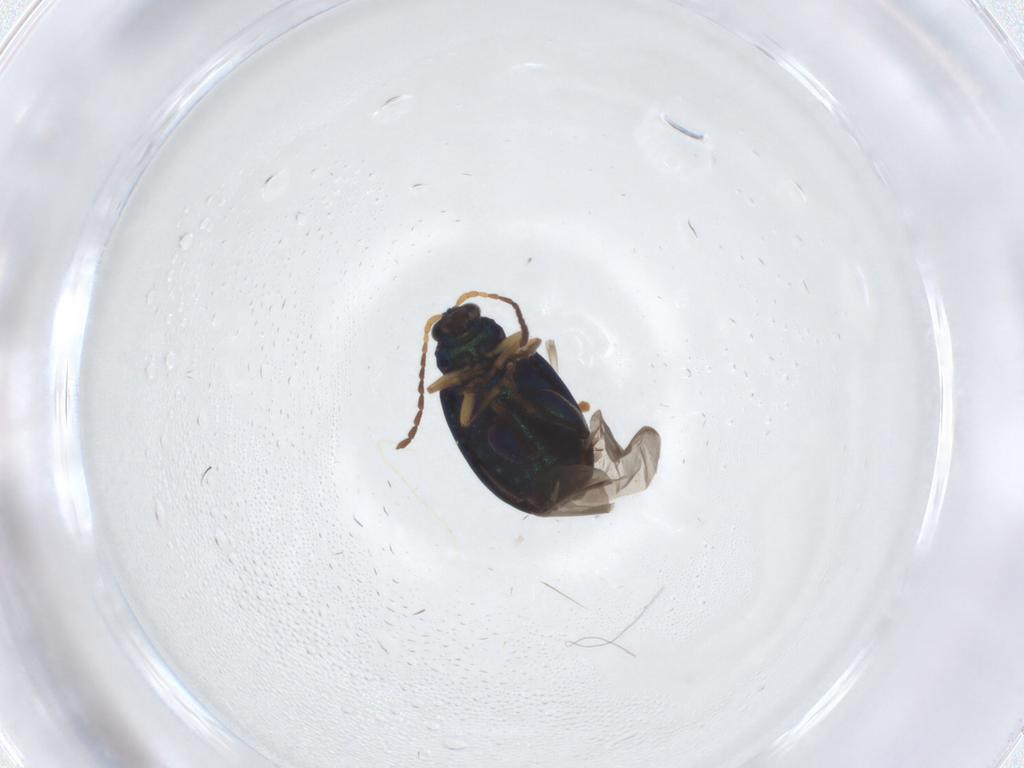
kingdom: Animalia
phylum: Arthropoda
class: Insecta
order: Coleoptera
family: Chrysomelidae
